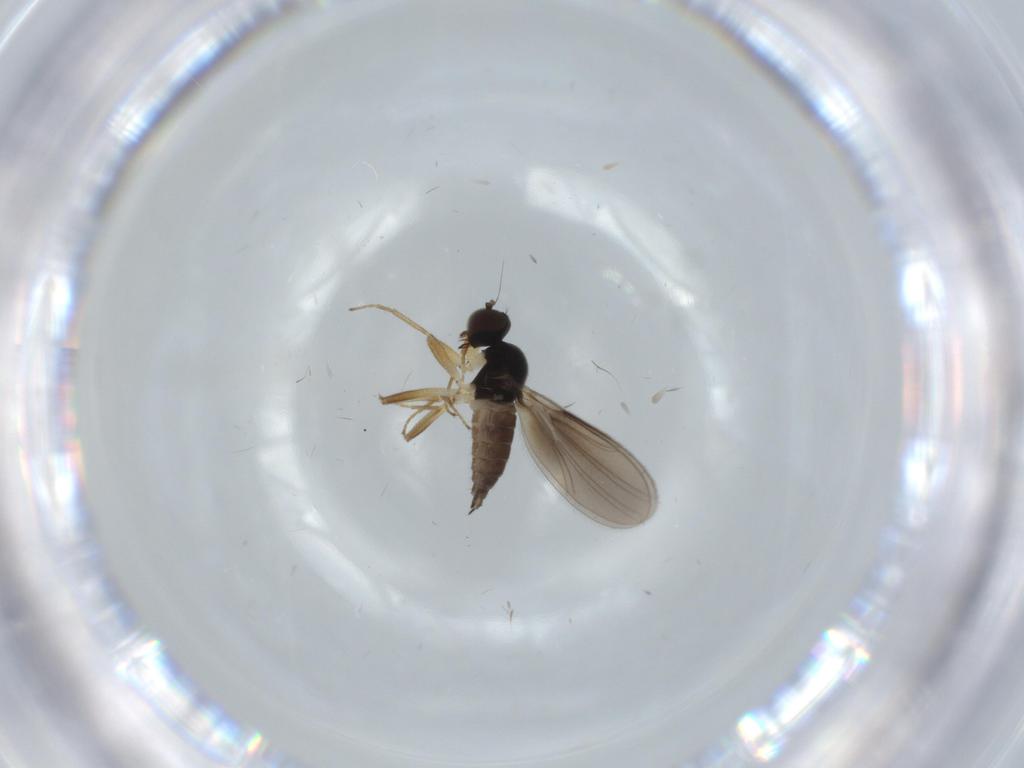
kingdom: Animalia
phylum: Arthropoda
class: Insecta
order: Diptera
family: Hybotidae
